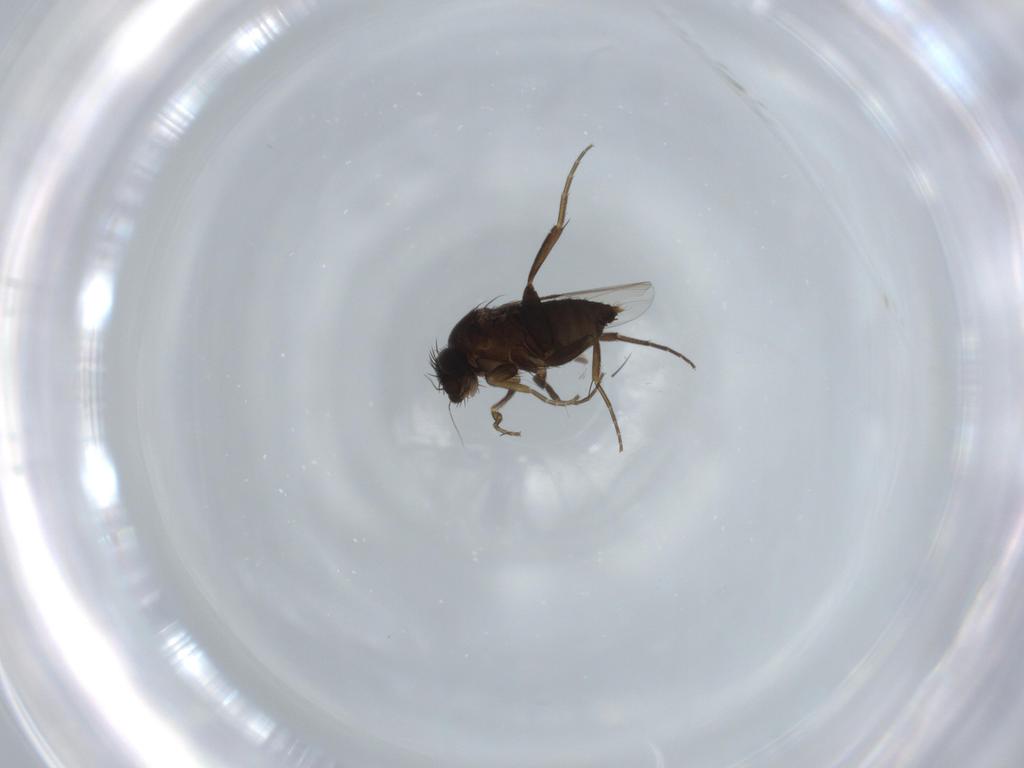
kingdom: Animalia
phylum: Arthropoda
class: Insecta
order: Diptera
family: Phoridae
